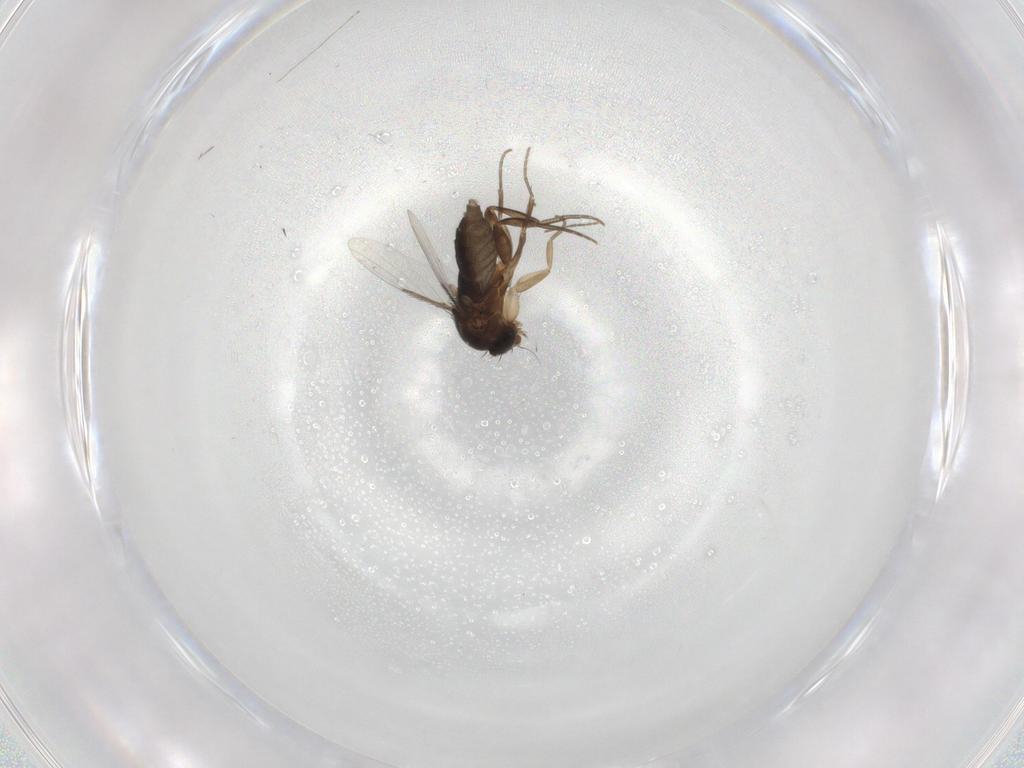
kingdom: Animalia
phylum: Arthropoda
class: Insecta
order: Diptera
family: Phoridae
